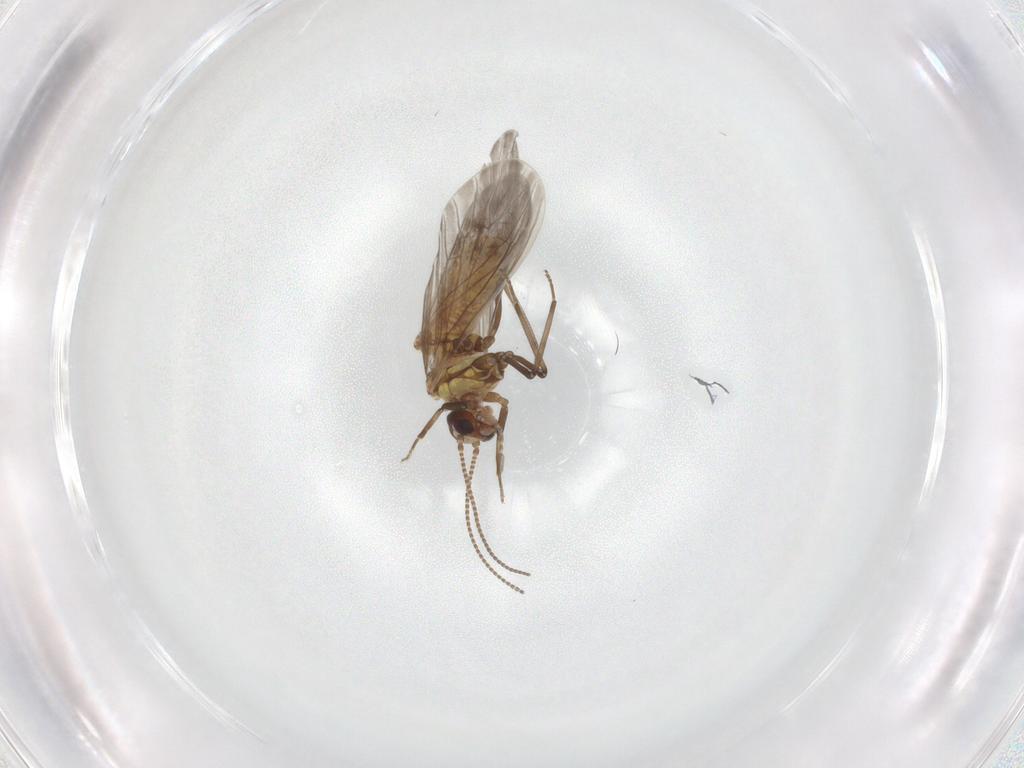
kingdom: Animalia
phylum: Arthropoda
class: Insecta
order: Neuroptera
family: Coniopterygidae
